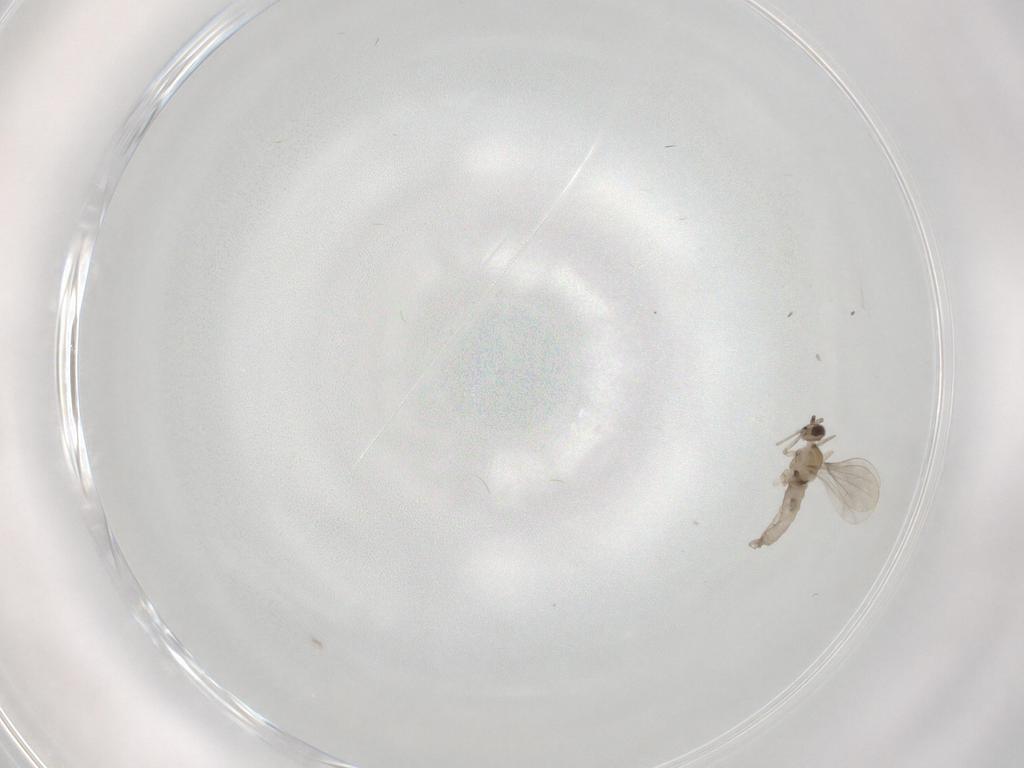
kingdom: Animalia
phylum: Arthropoda
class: Insecta
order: Diptera
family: Cecidomyiidae
